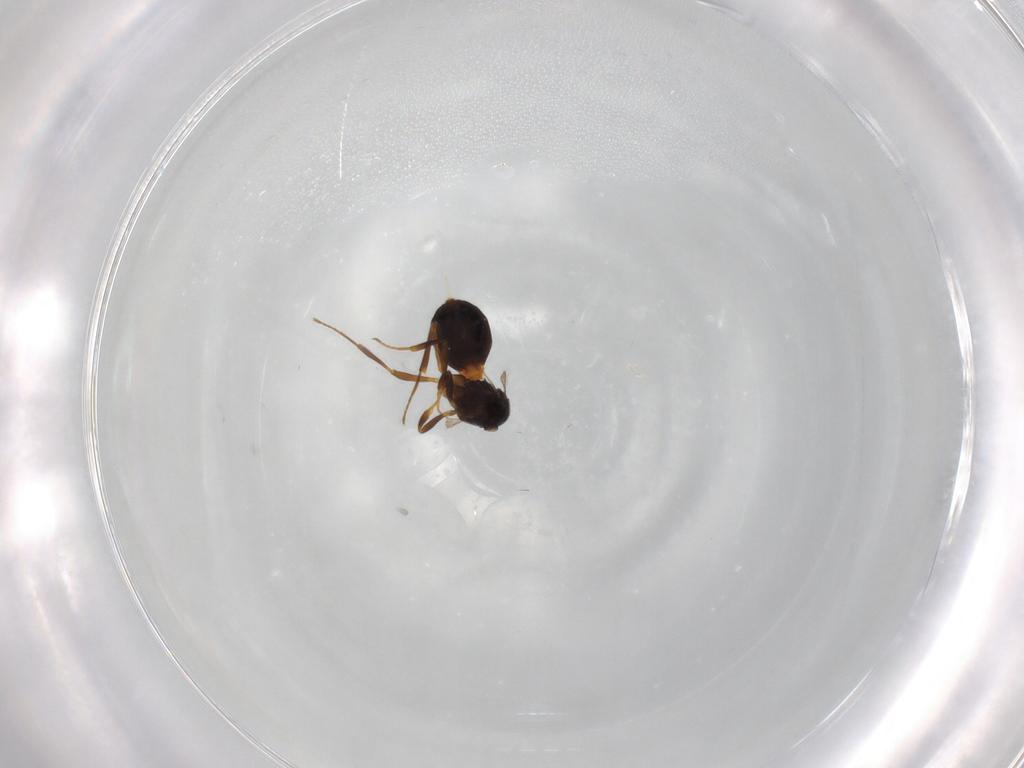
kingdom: Animalia
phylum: Arthropoda
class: Insecta
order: Hymenoptera
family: Scelionidae
